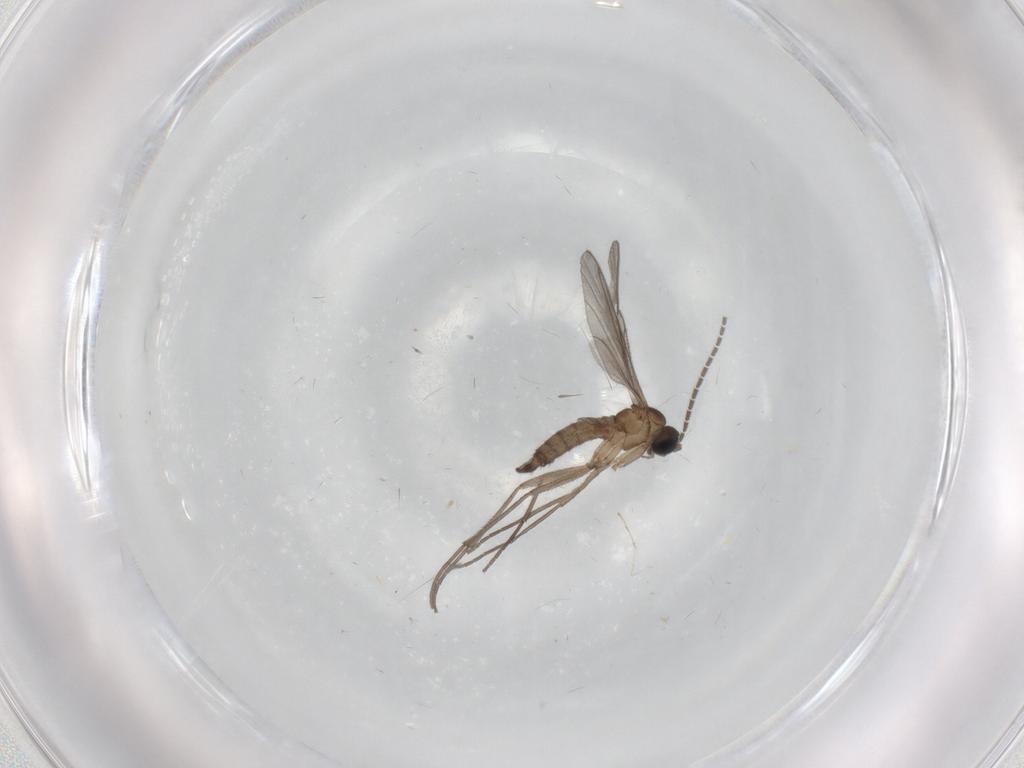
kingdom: Animalia
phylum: Arthropoda
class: Insecta
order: Diptera
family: Sciaridae
